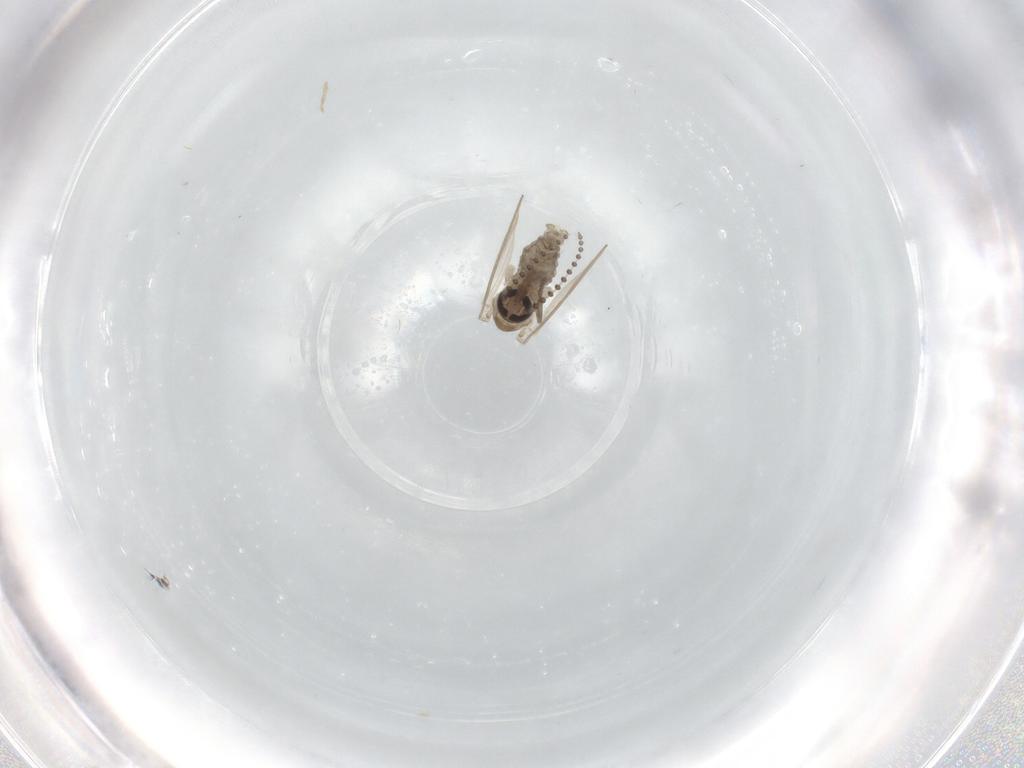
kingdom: Animalia
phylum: Arthropoda
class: Insecta
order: Diptera
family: Psychodidae
